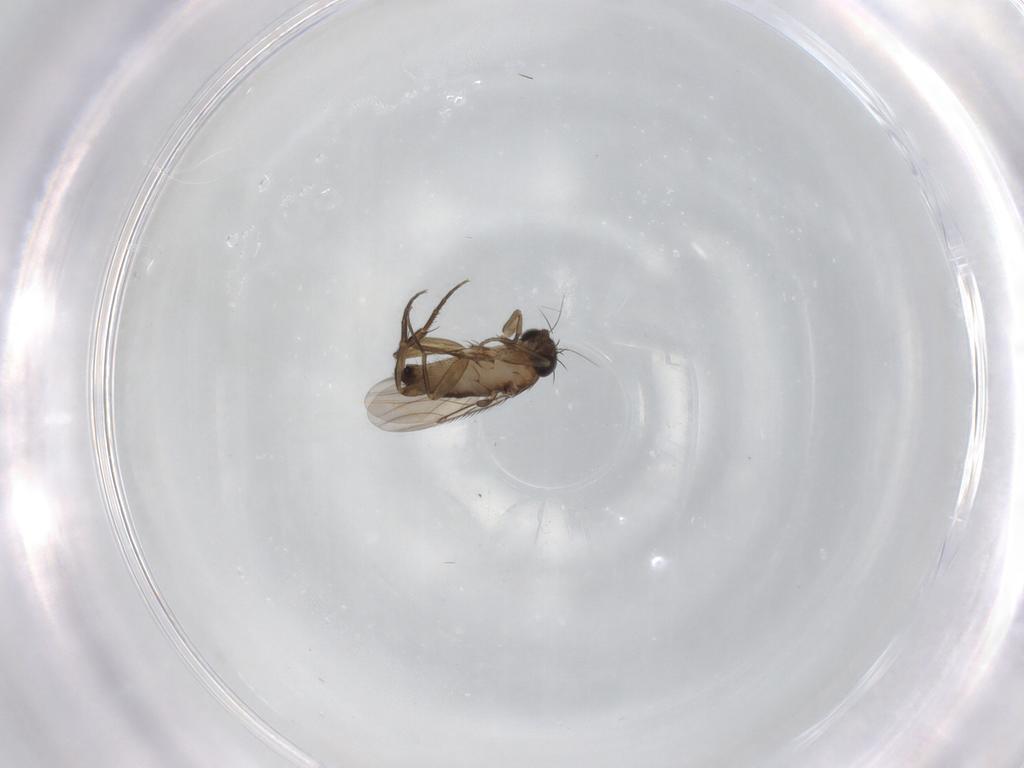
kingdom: Animalia
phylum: Arthropoda
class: Insecta
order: Diptera
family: Phoridae
